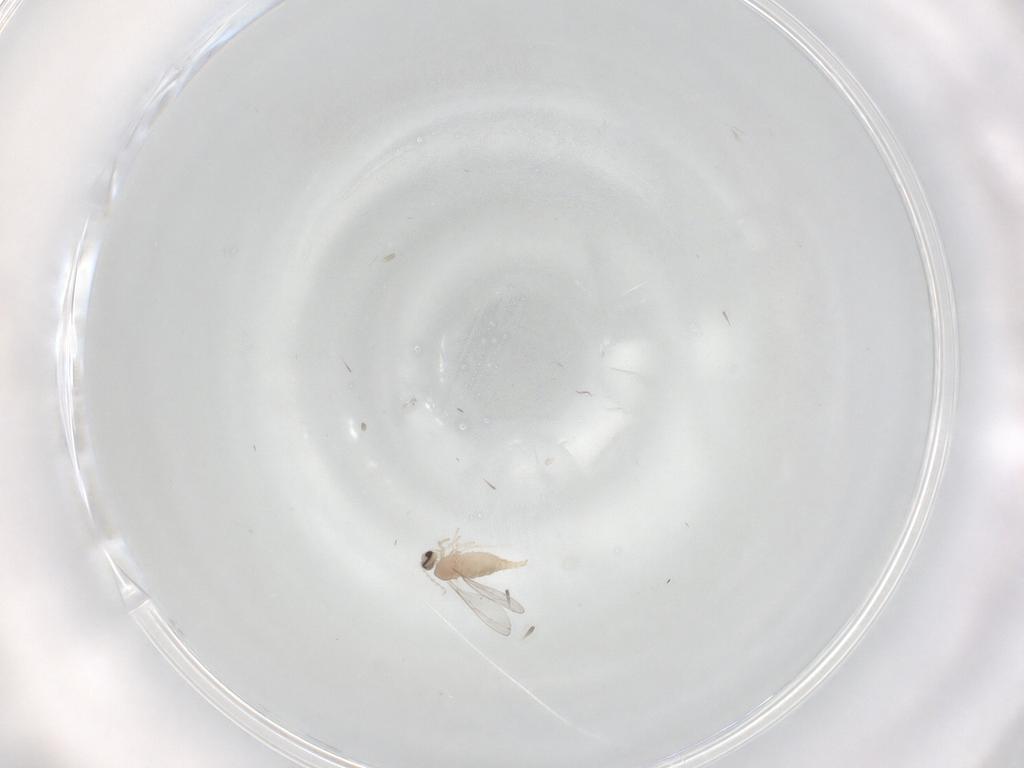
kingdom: Animalia
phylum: Arthropoda
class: Insecta
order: Diptera
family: Cecidomyiidae
